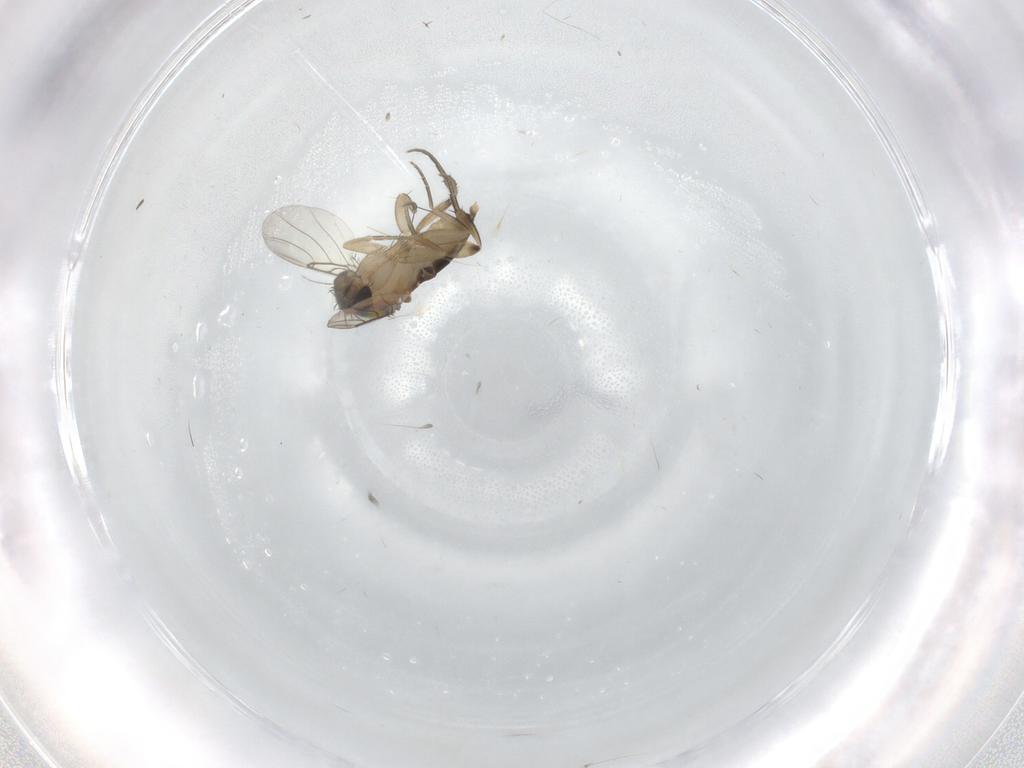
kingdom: Animalia
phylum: Arthropoda
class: Insecta
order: Diptera
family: Phoridae
